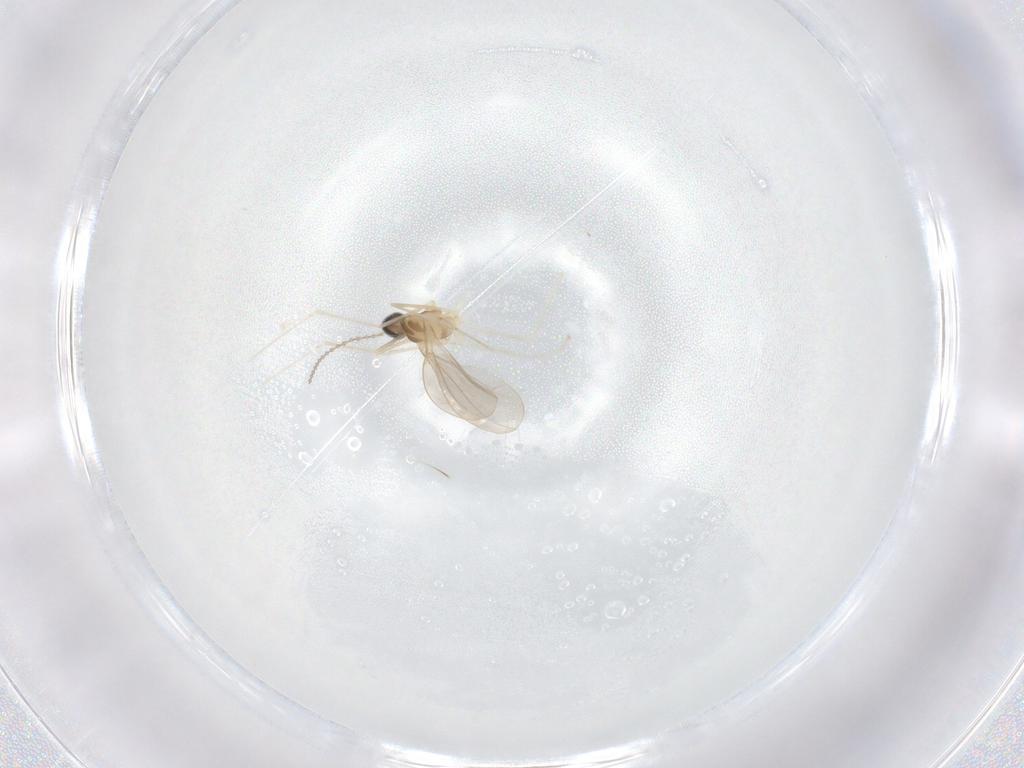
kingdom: Animalia
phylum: Arthropoda
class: Insecta
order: Diptera
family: Cecidomyiidae
